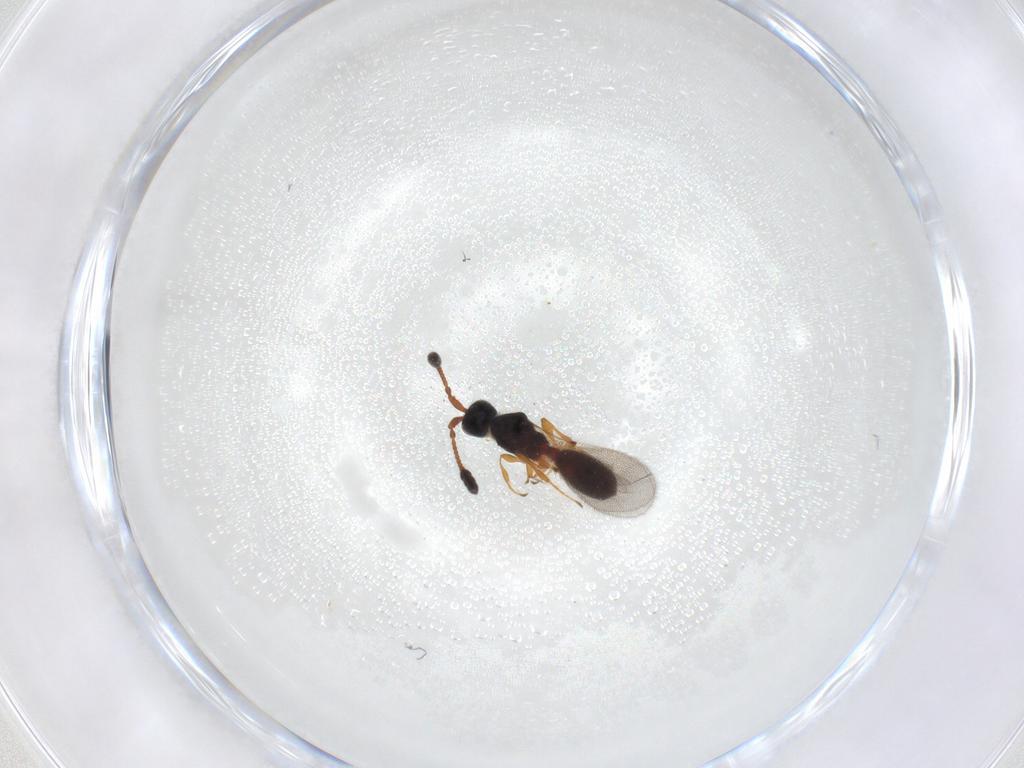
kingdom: Animalia
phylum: Arthropoda
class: Insecta
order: Hymenoptera
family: Diapriidae
